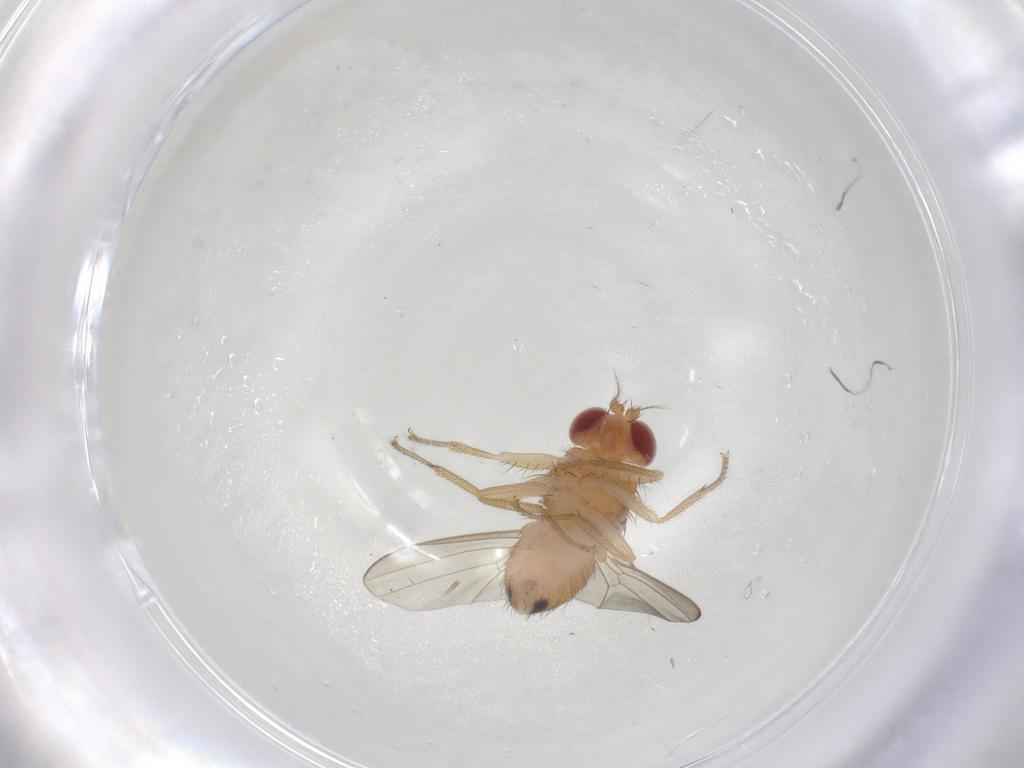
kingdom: Animalia
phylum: Arthropoda
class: Insecta
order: Diptera
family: Drosophilidae
